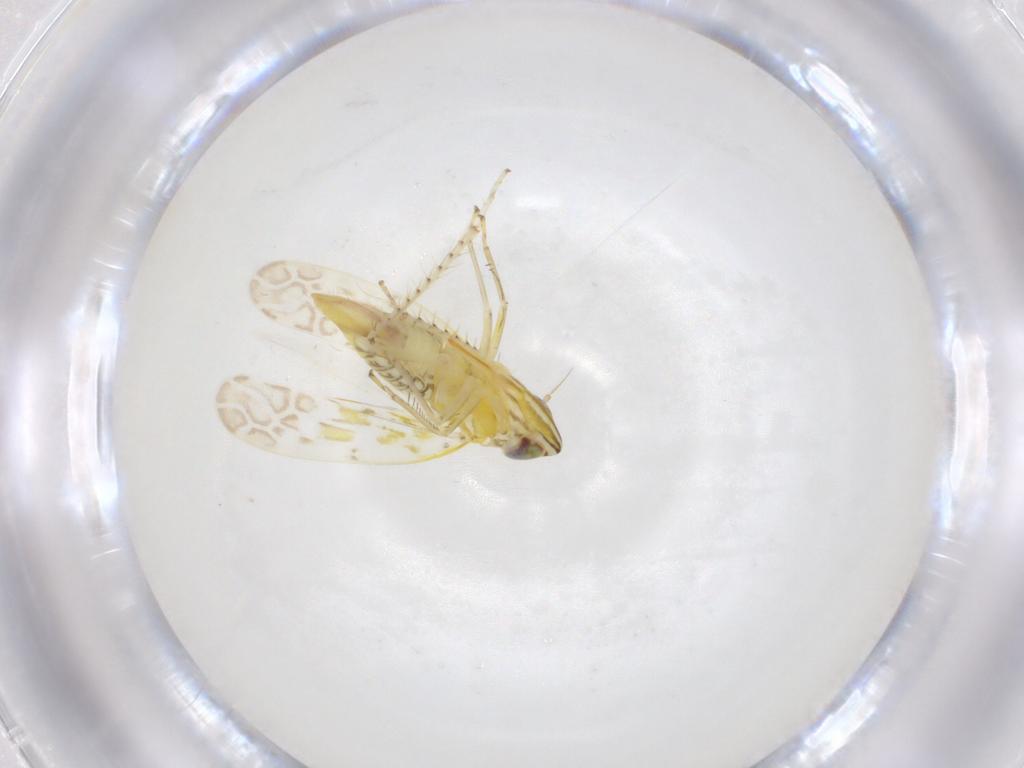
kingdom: Animalia
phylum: Arthropoda
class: Insecta
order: Hemiptera
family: Cicadellidae
